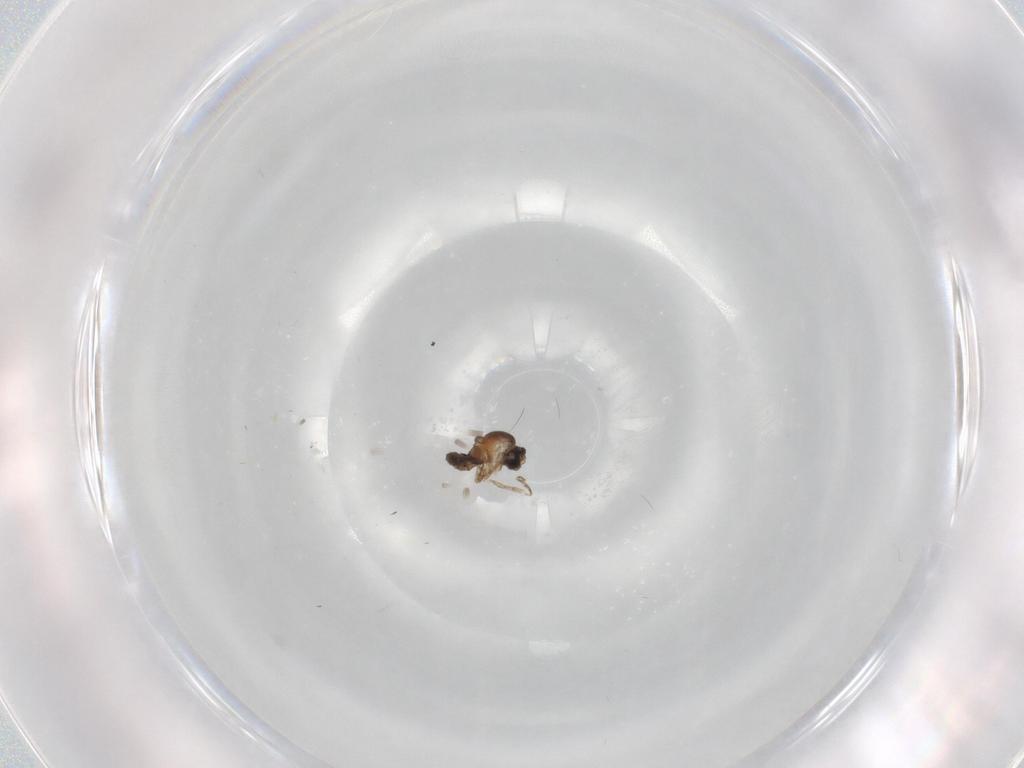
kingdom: Animalia
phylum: Arthropoda
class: Insecta
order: Diptera
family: Cecidomyiidae
